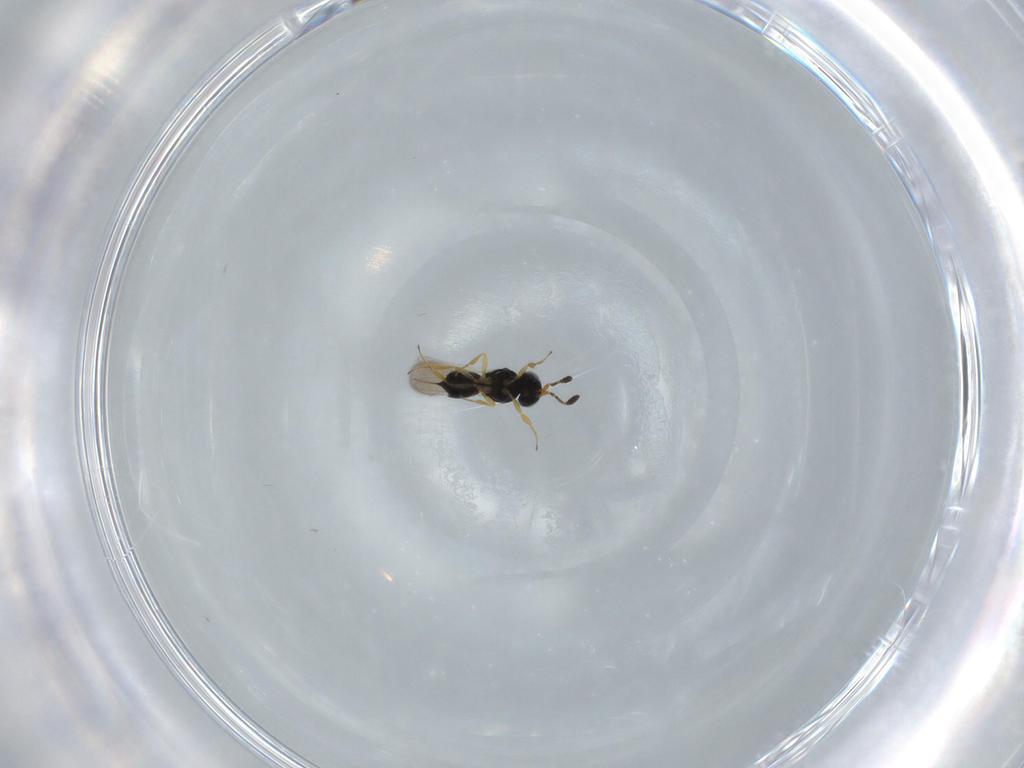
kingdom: Animalia
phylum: Arthropoda
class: Insecta
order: Hymenoptera
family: Scelionidae
